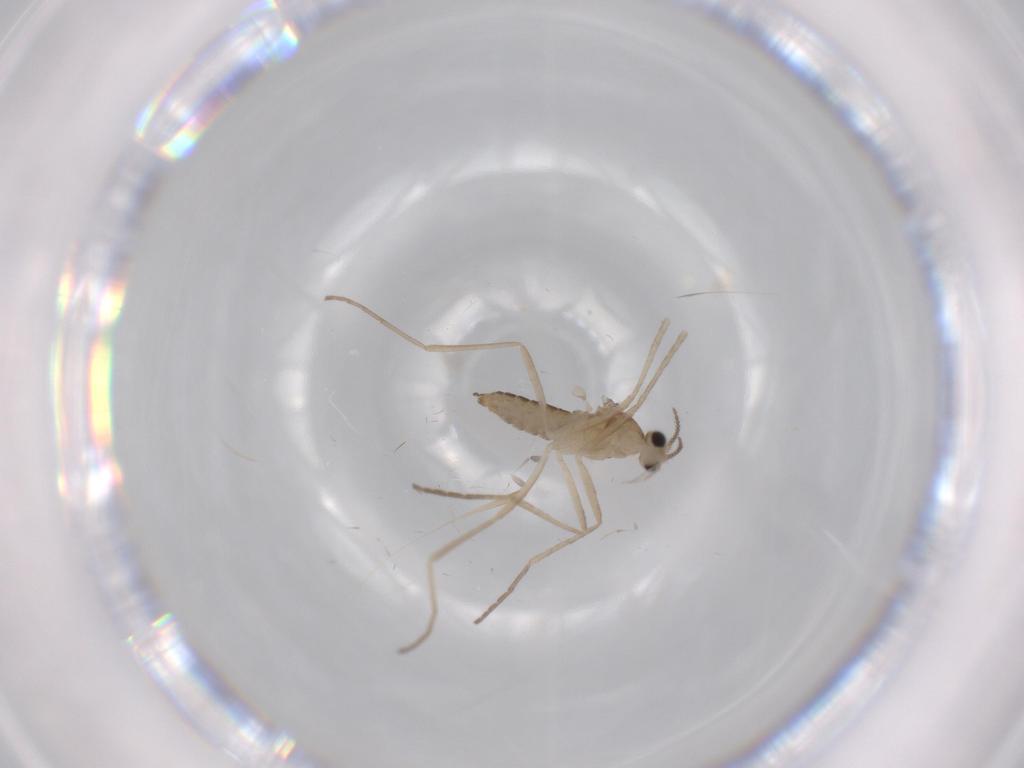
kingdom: Animalia
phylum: Arthropoda
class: Insecta
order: Diptera
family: Cecidomyiidae
